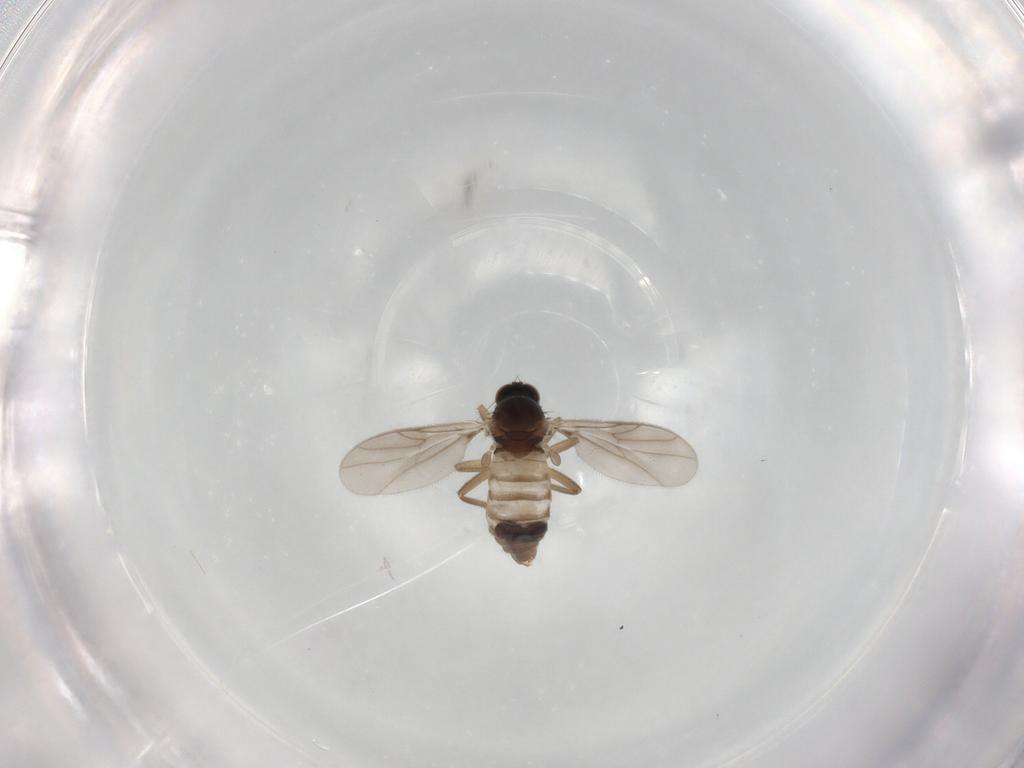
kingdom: Animalia
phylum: Arthropoda
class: Insecta
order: Diptera
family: Hybotidae
